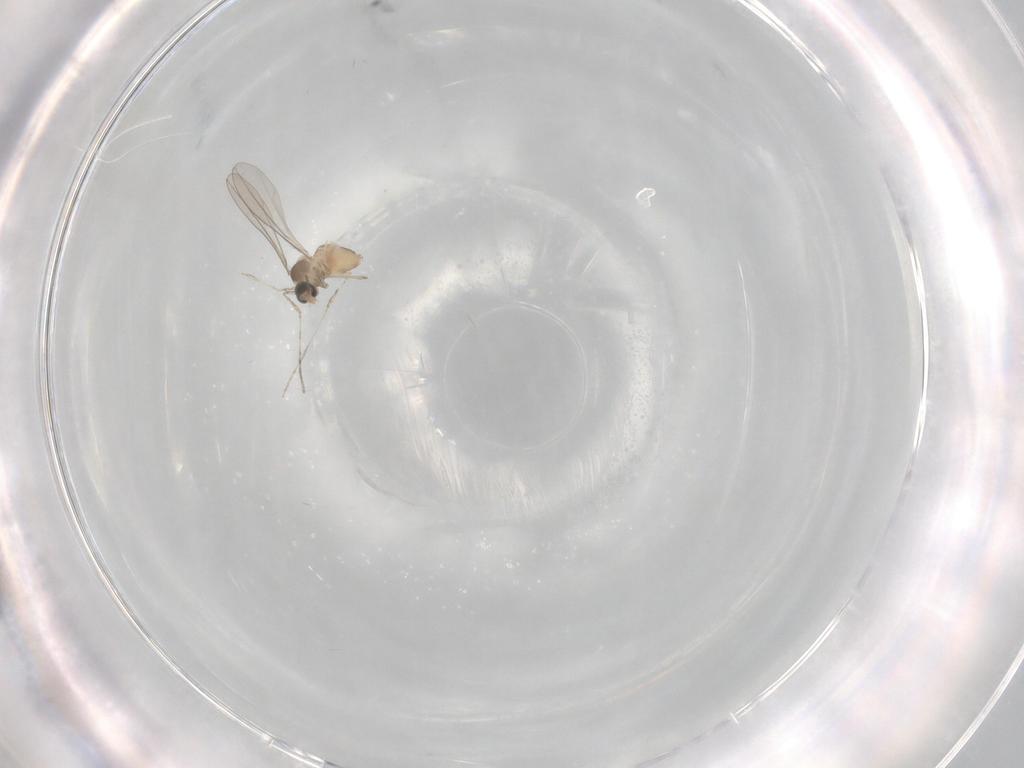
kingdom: Animalia
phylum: Arthropoda
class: Insecta
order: Diptera
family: Cecidomyiidae
